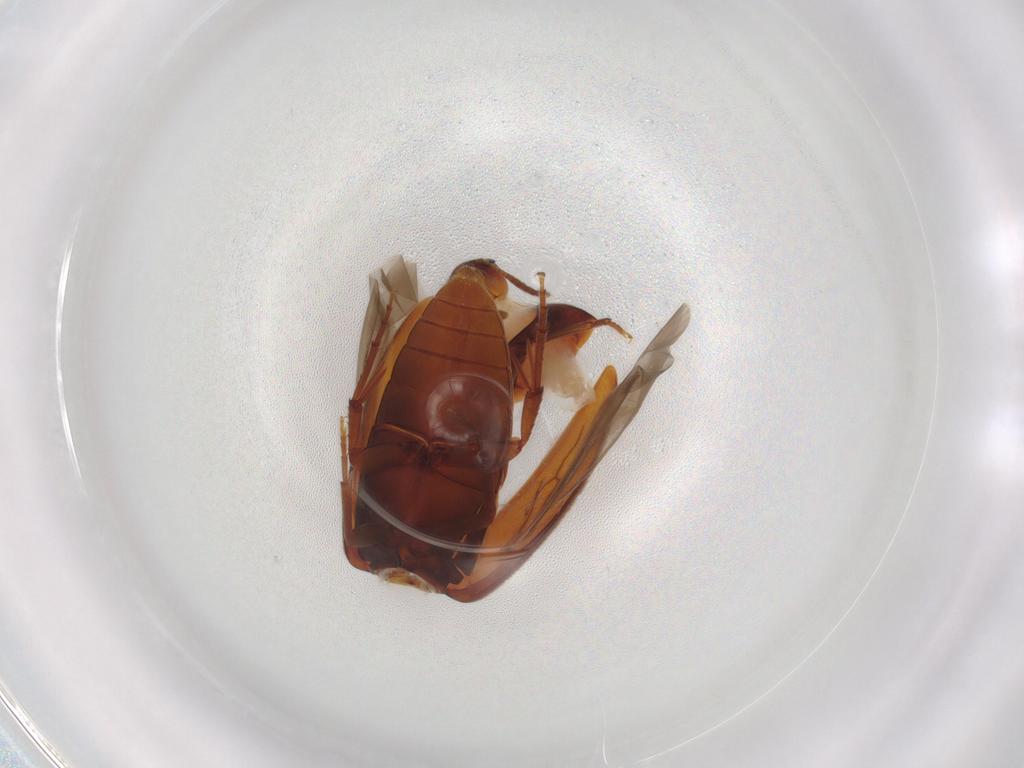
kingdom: Animalia
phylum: Arthropoda
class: Insecta
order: Coleoptera
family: Melandryidae
